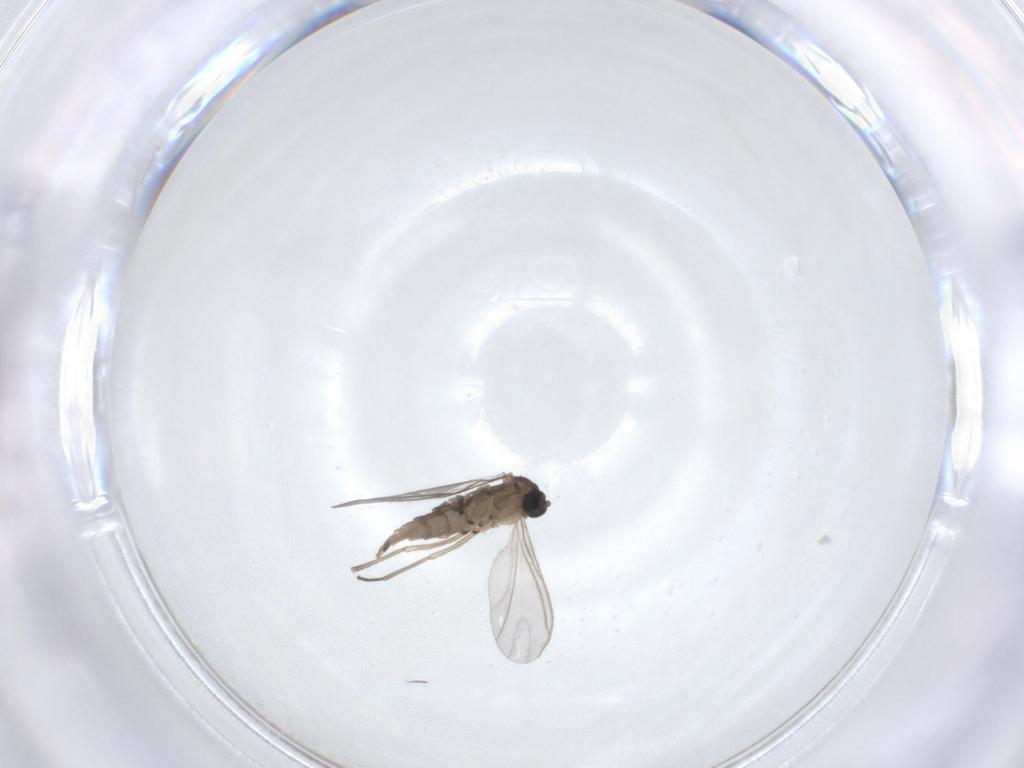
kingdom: Animalia
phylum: Arthropoda
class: Insecta
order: Diptera
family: Sciaridae
